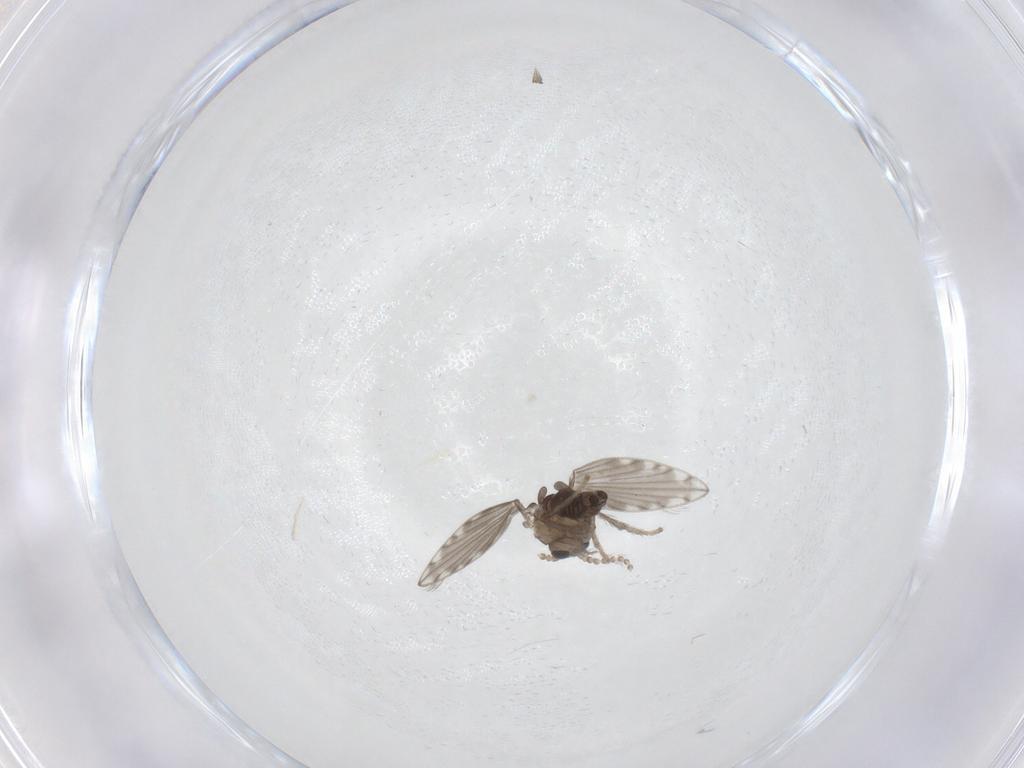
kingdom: Animalia
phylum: Arthropoda
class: Insecta
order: Diptera
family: Psychodidae
